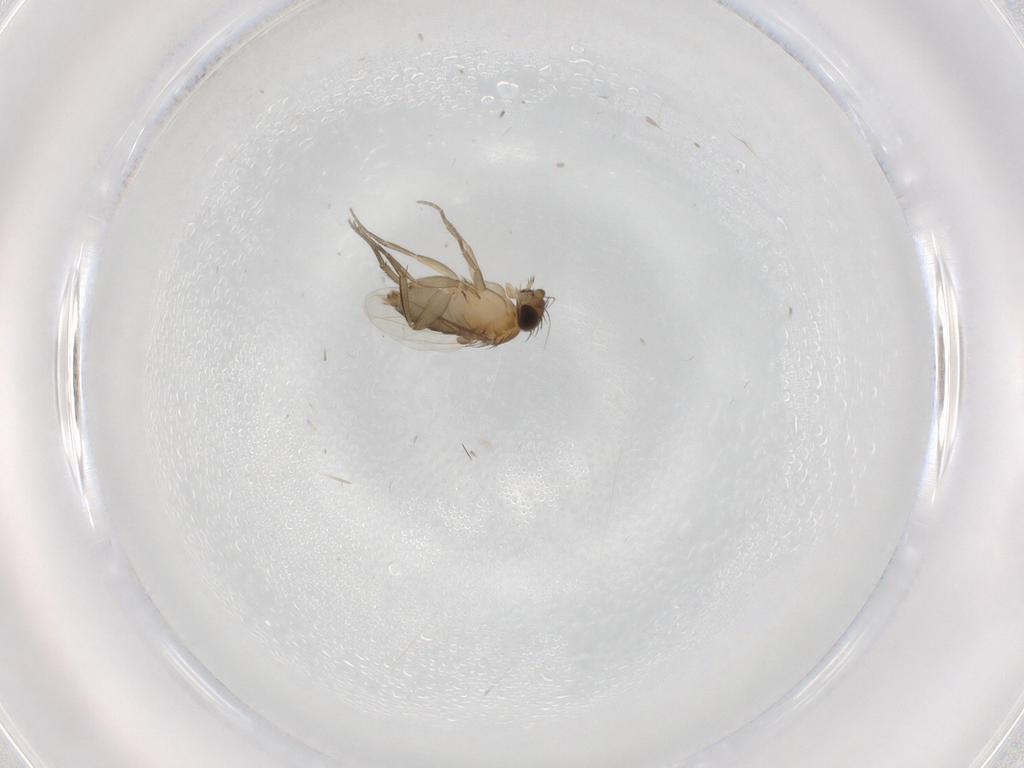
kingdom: Animalia
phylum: Arthropoda
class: Insecta
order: Diptera
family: Phoridae
